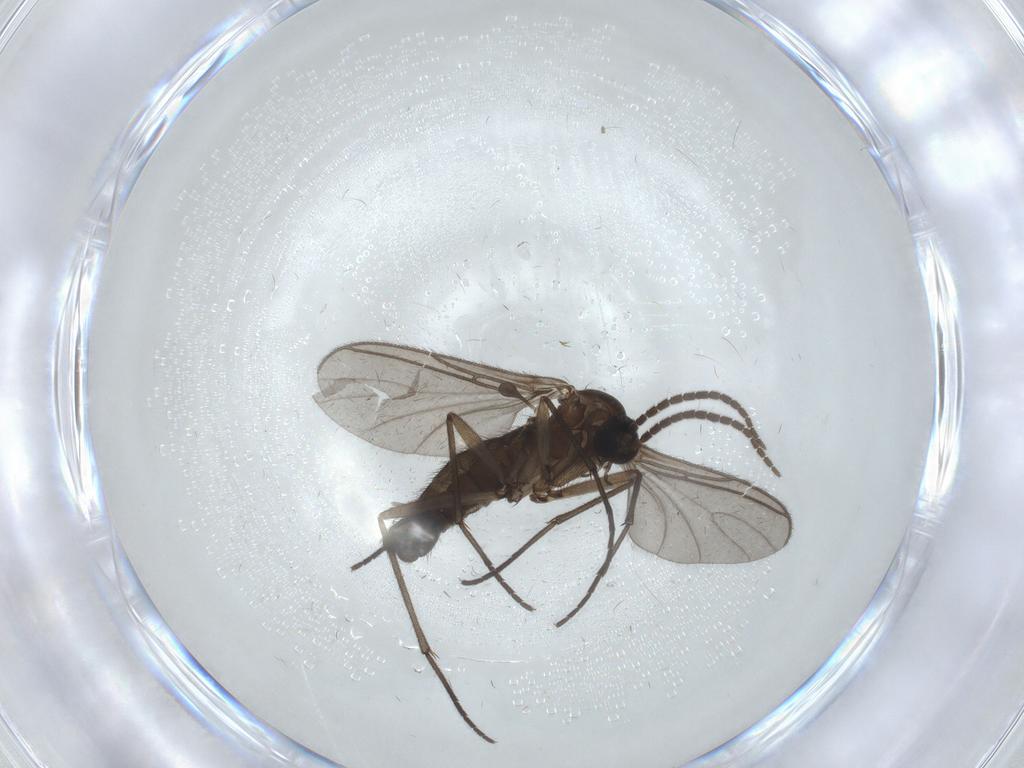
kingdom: Animalia
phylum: Arthropoda
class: Insecta
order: Diptera
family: Sciaridae
